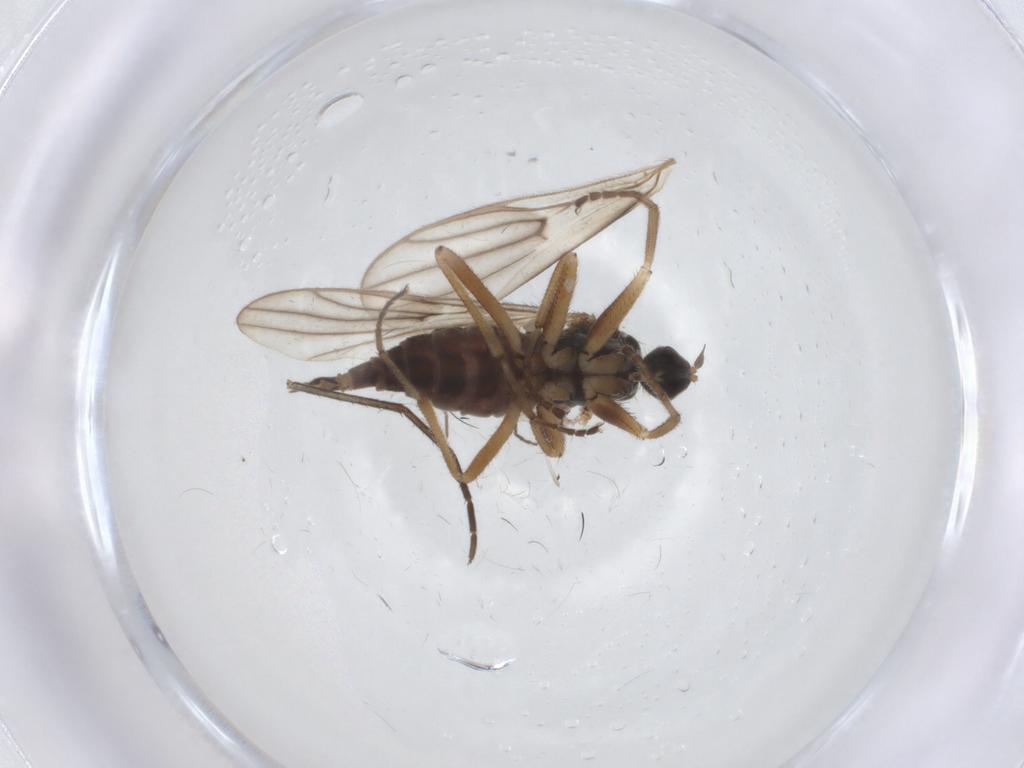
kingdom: Animalia
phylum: Arthropoda
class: Insecta
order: Diptera
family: Hybotidae
